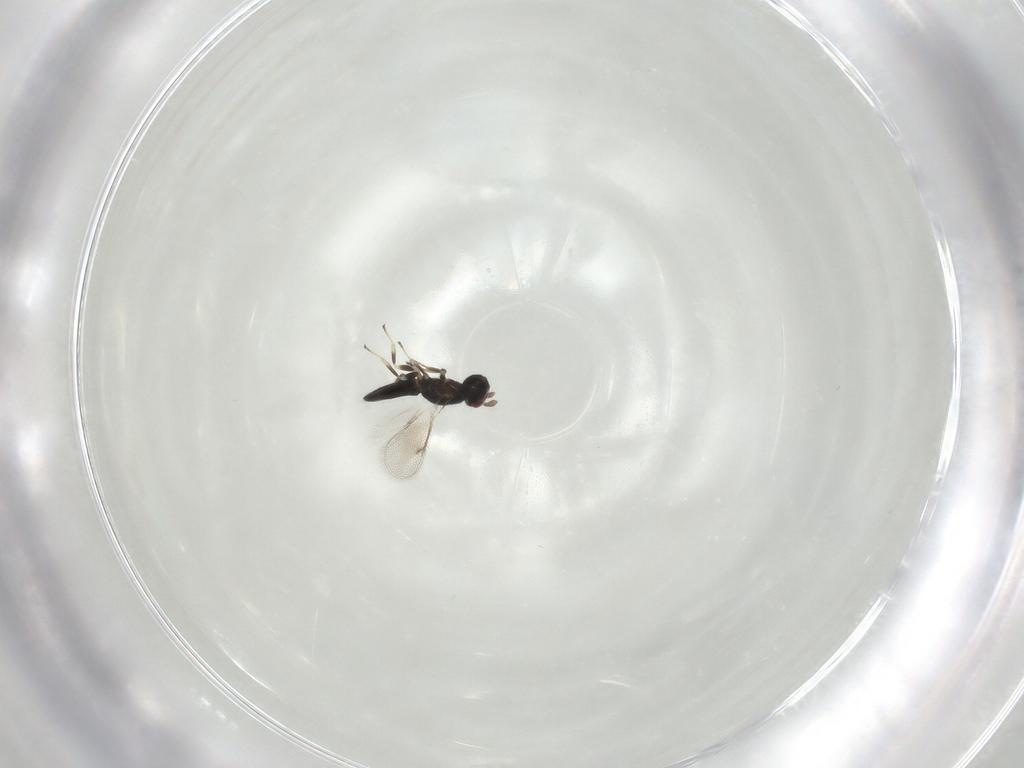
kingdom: Animalia
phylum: Arthropoda
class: Insecta
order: Hymenoptera
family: Eulophidae
